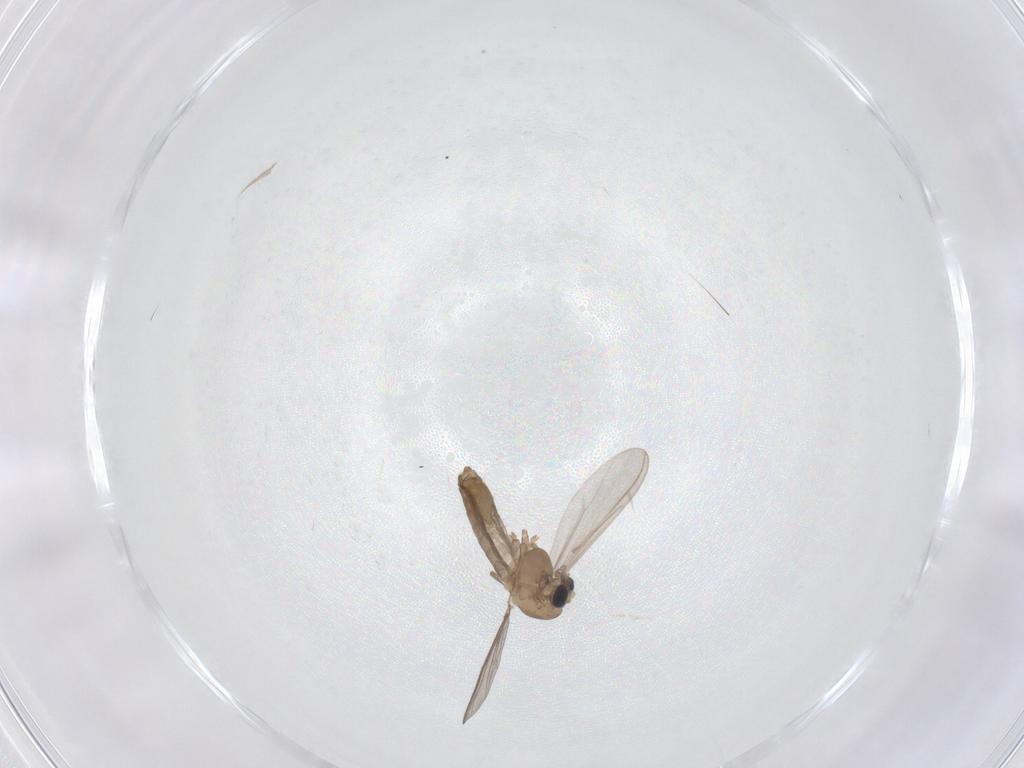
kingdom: Animalia
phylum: Arthropoda
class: Insecta
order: Diptera
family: Chironomidae
